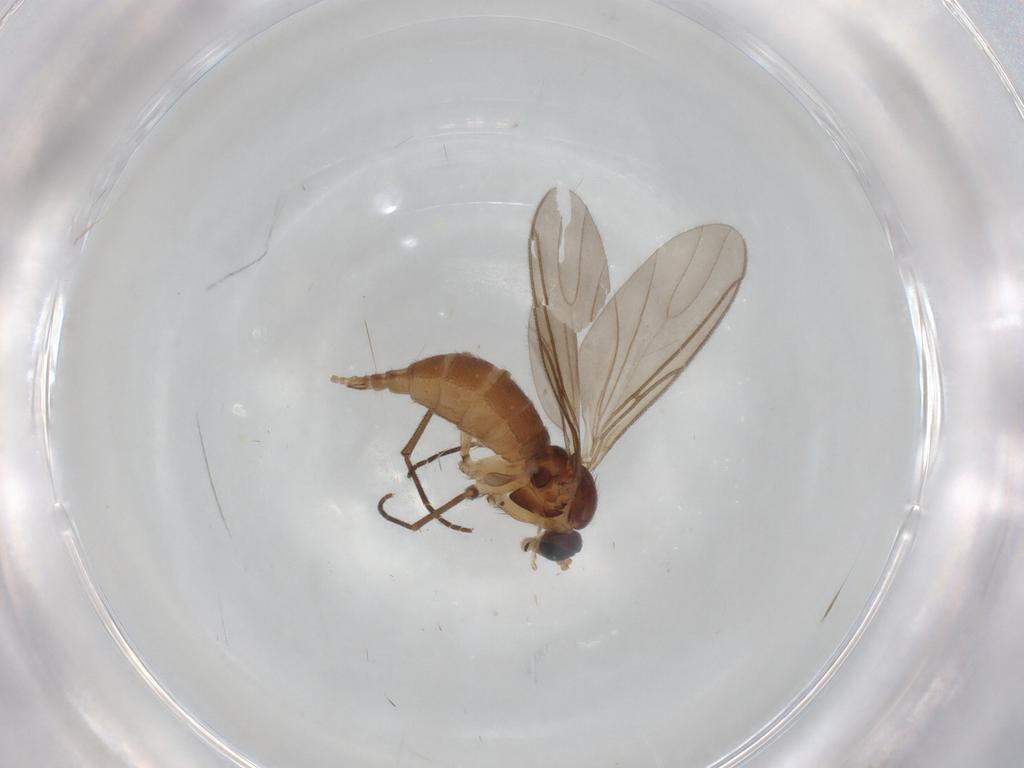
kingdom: Animalia
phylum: Arthropoda
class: Insecta
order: Diptera
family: Sciaridae
